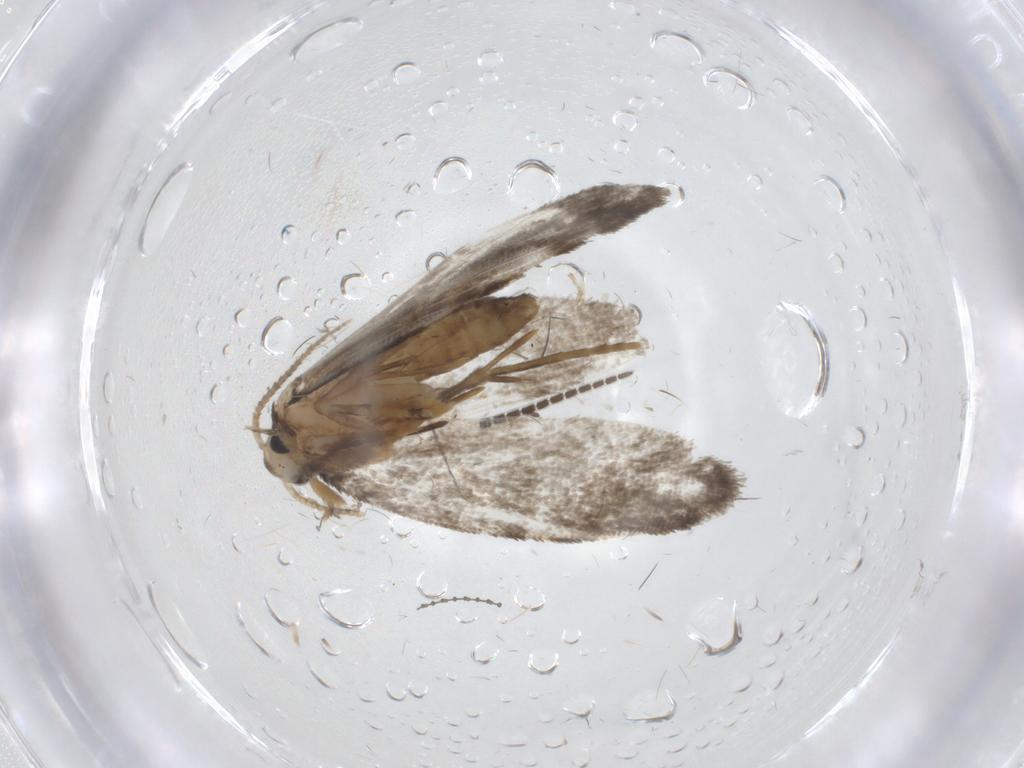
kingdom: Animalia
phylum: Arthropoda
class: Insecta
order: Lepidoptera
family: Psychidae
